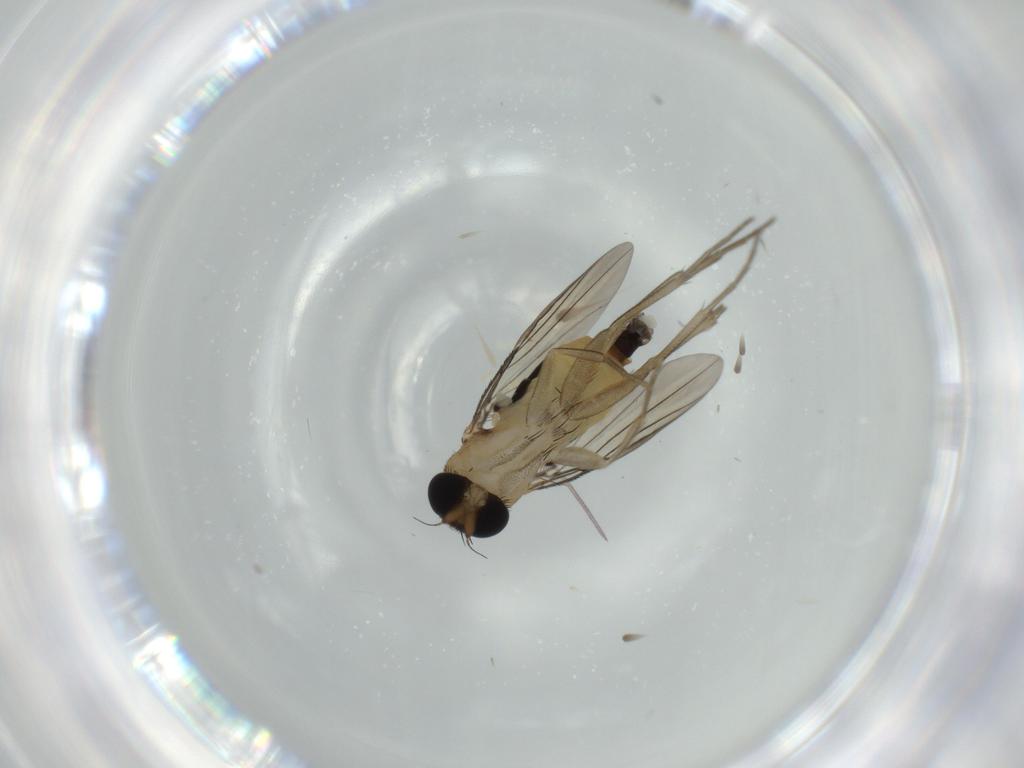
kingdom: Animalia
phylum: Arthropoda
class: Insecta
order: Diptera
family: Phoridae
